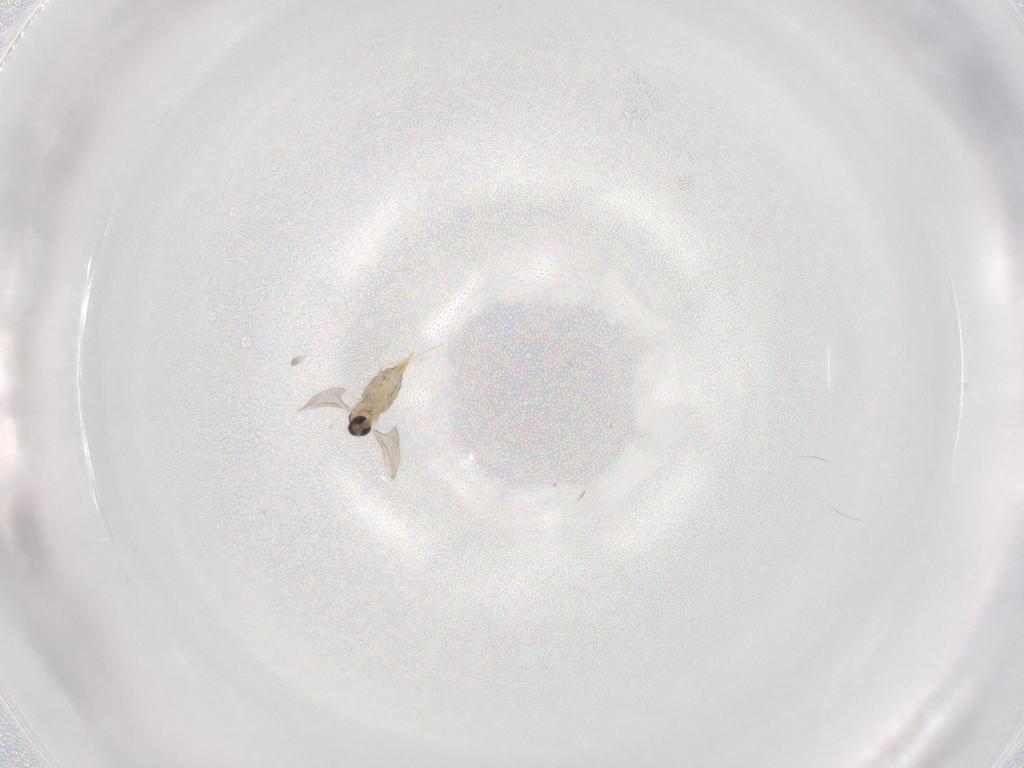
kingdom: Animalia
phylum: Arthropoda
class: Insecta
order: Diptera
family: Cecidomyiidae
